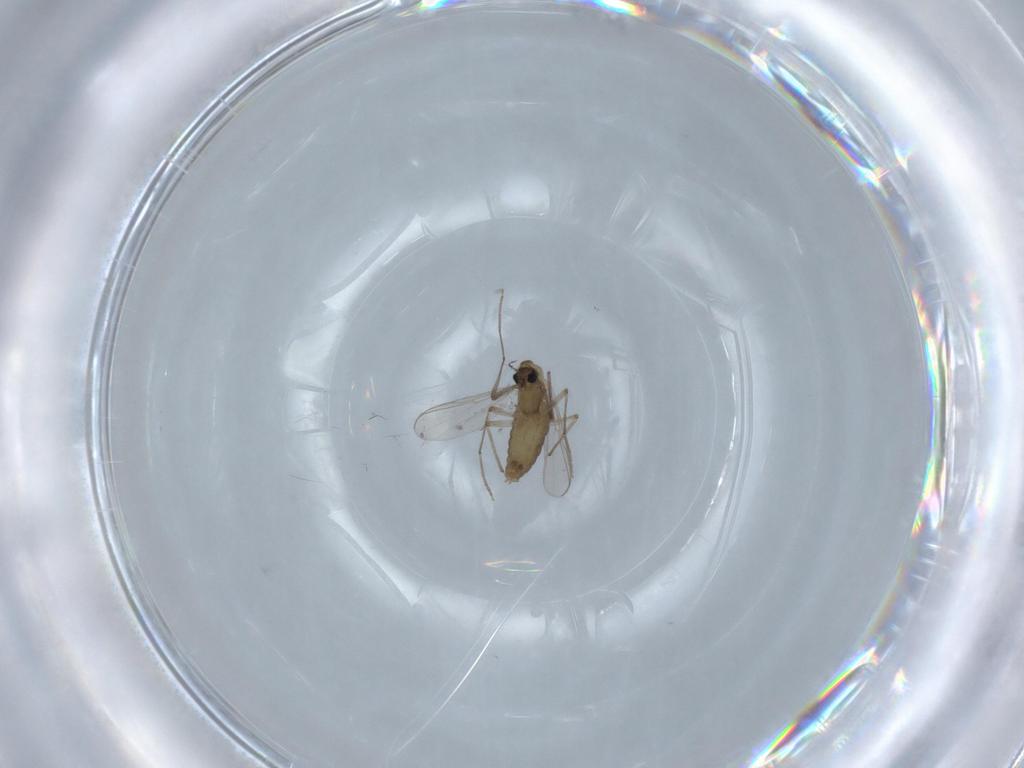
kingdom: Animalia
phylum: Arthropoda
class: Insecta
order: Diptera
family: Chironomidae
